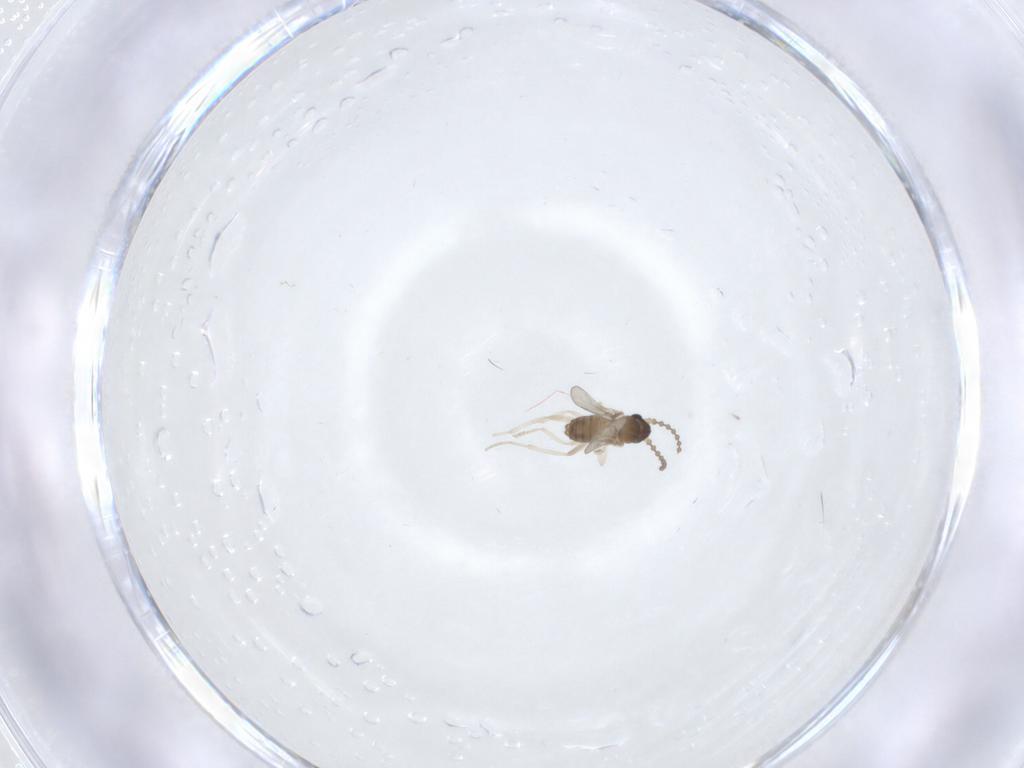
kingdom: Animalia
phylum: Arthropoda
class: Insecta
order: Diptera
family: Cecidomyiidae
